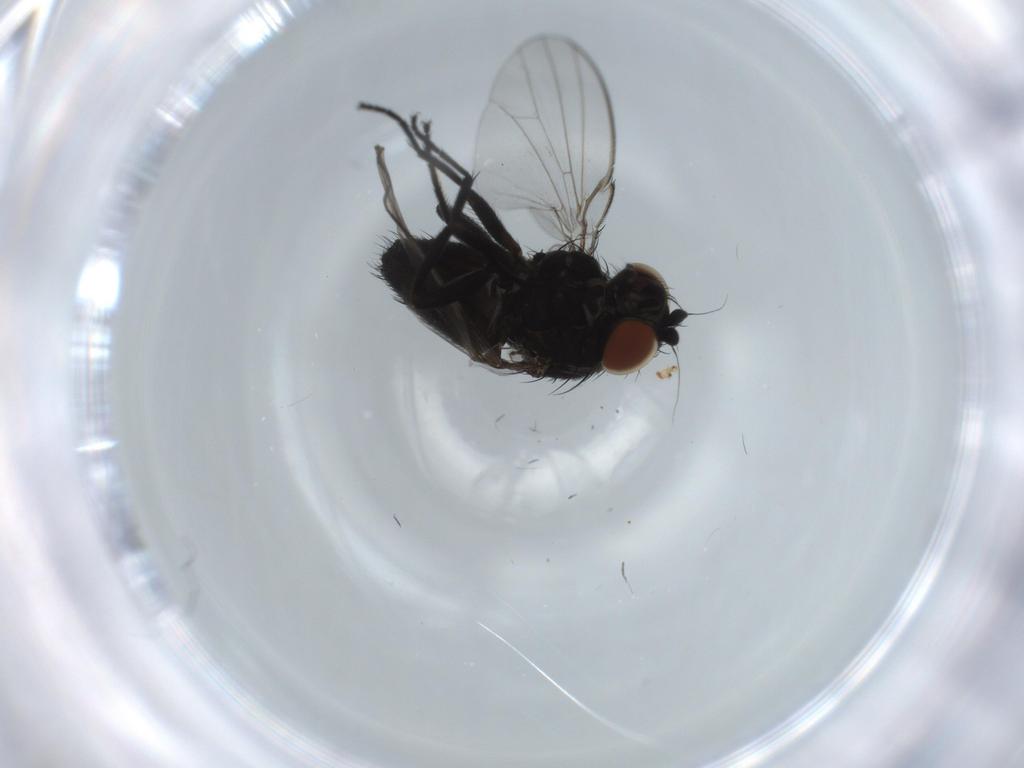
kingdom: Animalia
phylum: Arthropoda
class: Insecta
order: Diptera
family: Milichiidae
